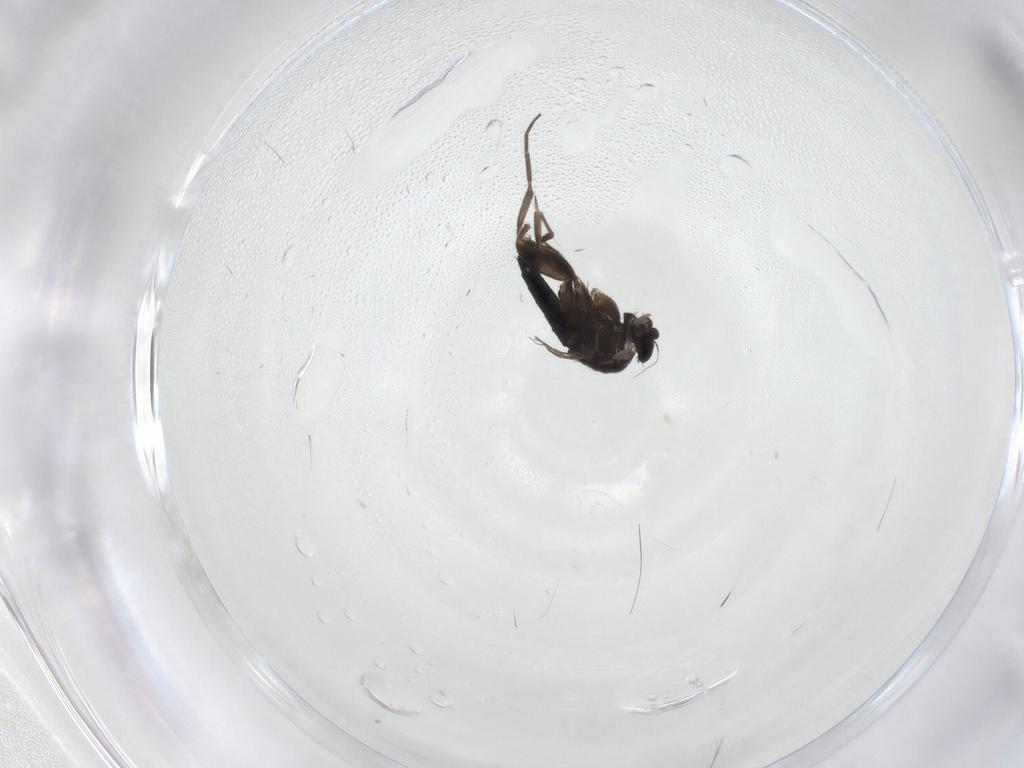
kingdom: Animalia
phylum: Arthropoda
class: Insecta
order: Diptera
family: Phoridae
